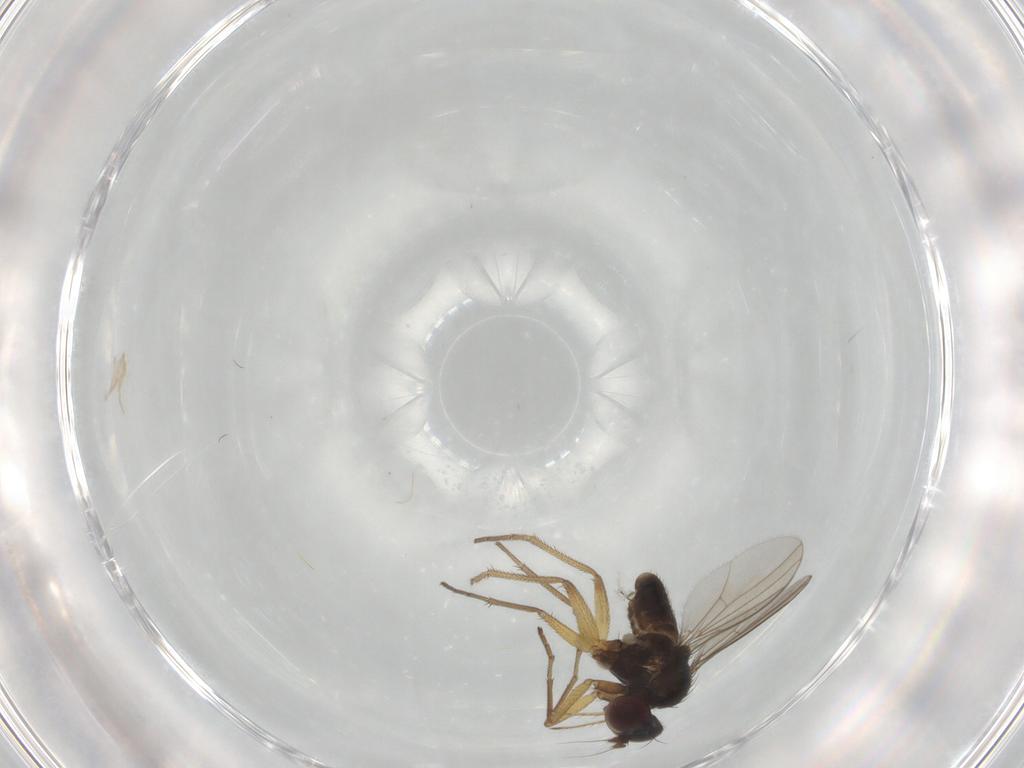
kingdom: Animalia
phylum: Arthropoda
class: Insecta
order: Diptera
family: Dolichopodidae
